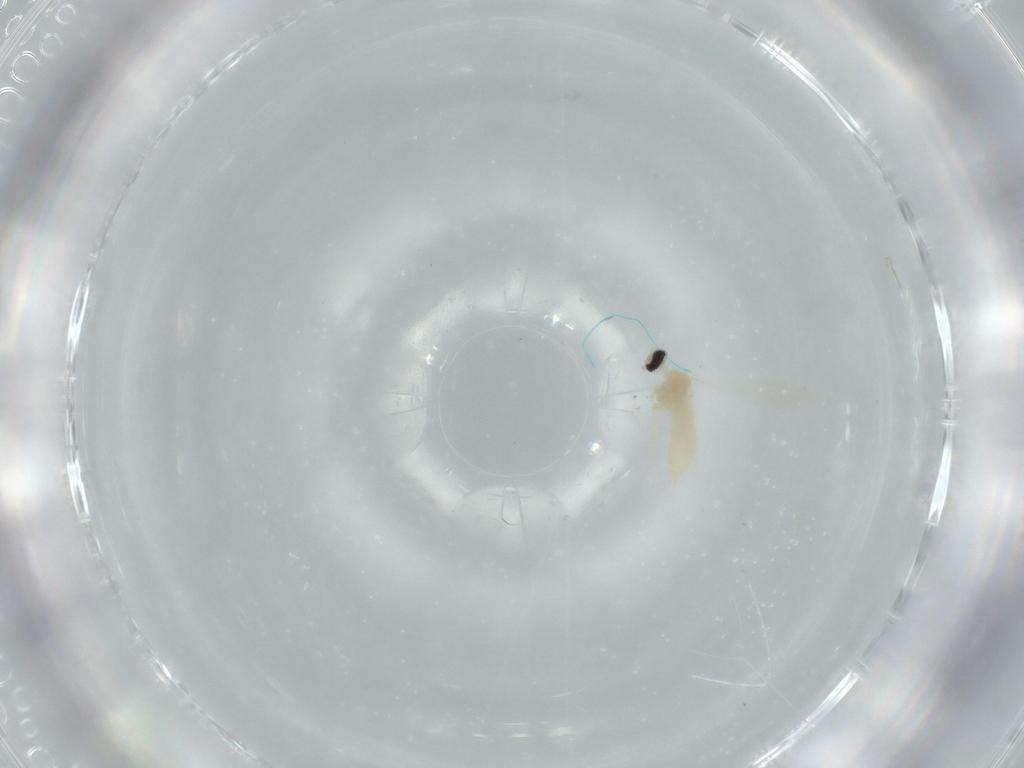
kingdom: Animalia
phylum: Arthropoda
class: Insecta
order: Diptera
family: Cecidomyiidae
